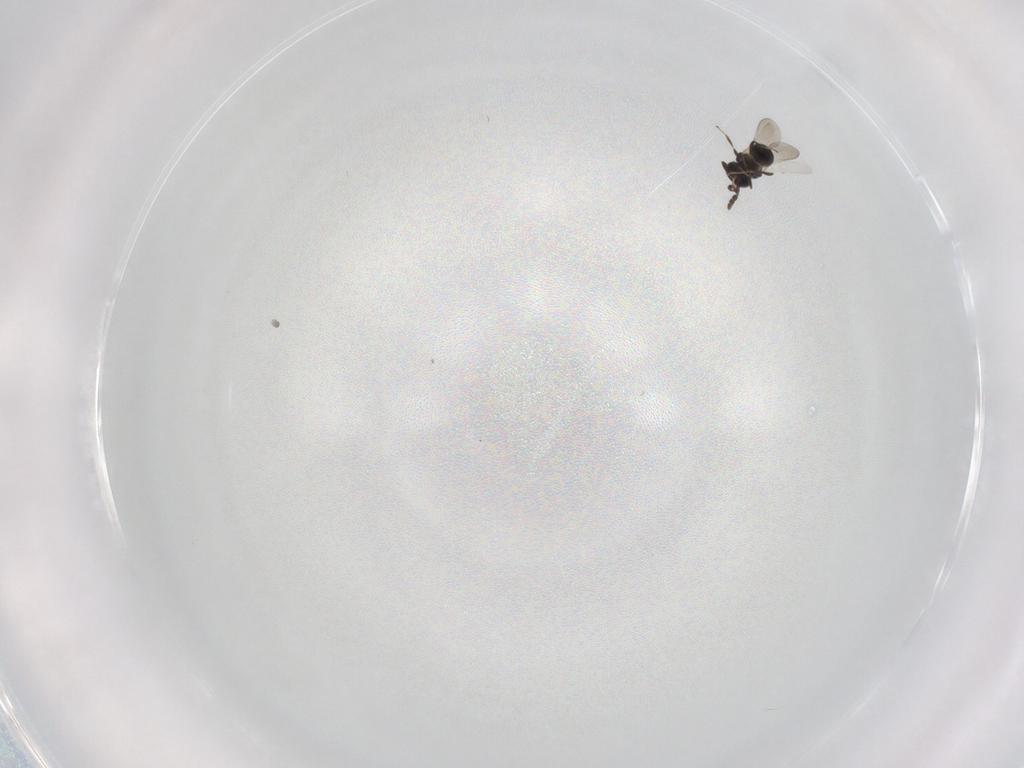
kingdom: Animalia
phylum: Arthropoda
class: Insecta
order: Hymenoptera
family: Platygastridae
